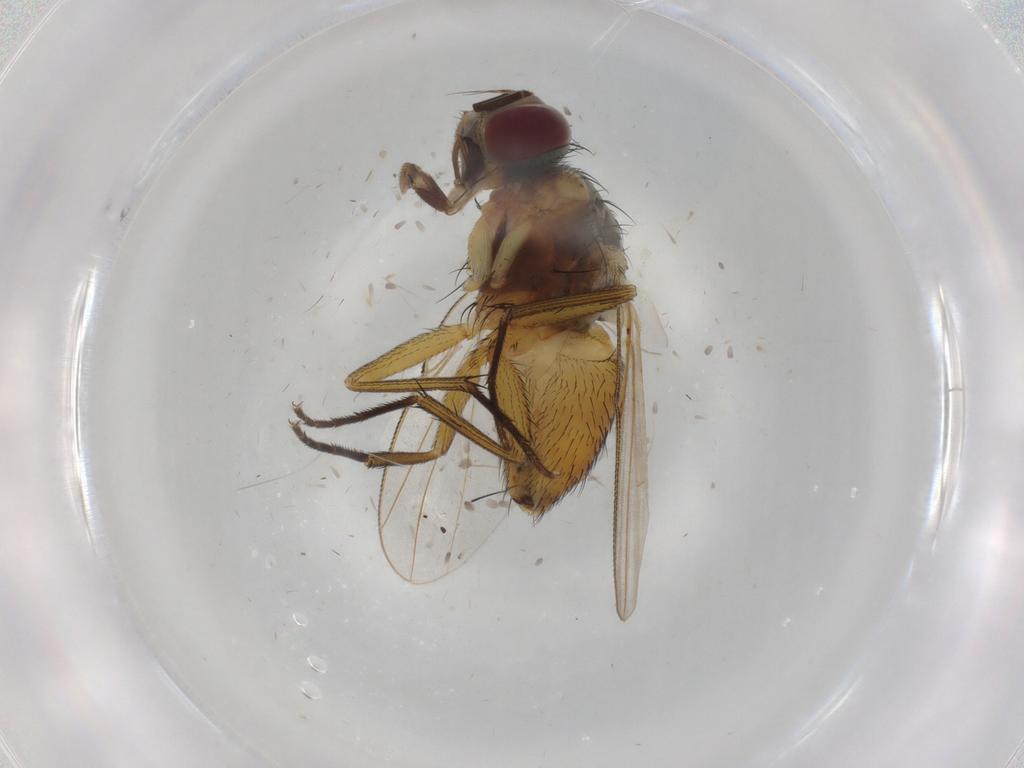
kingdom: Animalia
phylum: Arthropoda
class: Insecta
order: Diptera
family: Muscidae
